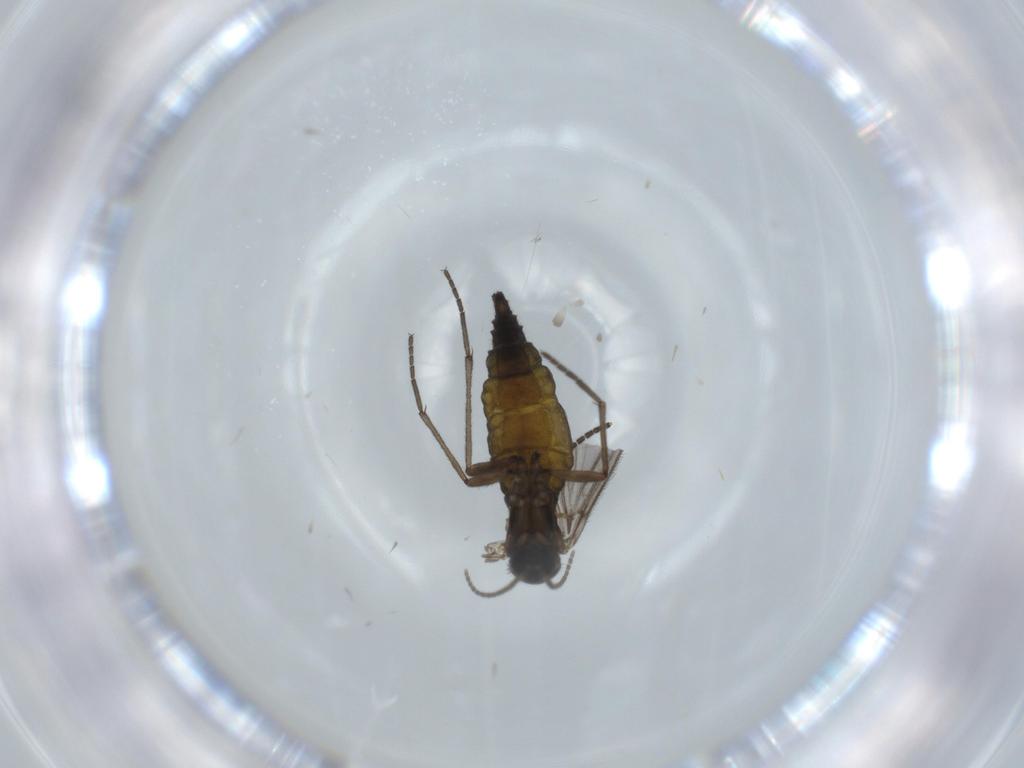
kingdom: Animalia
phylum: Arthropoda
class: Insecta
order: Diptera
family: Sciaridae
